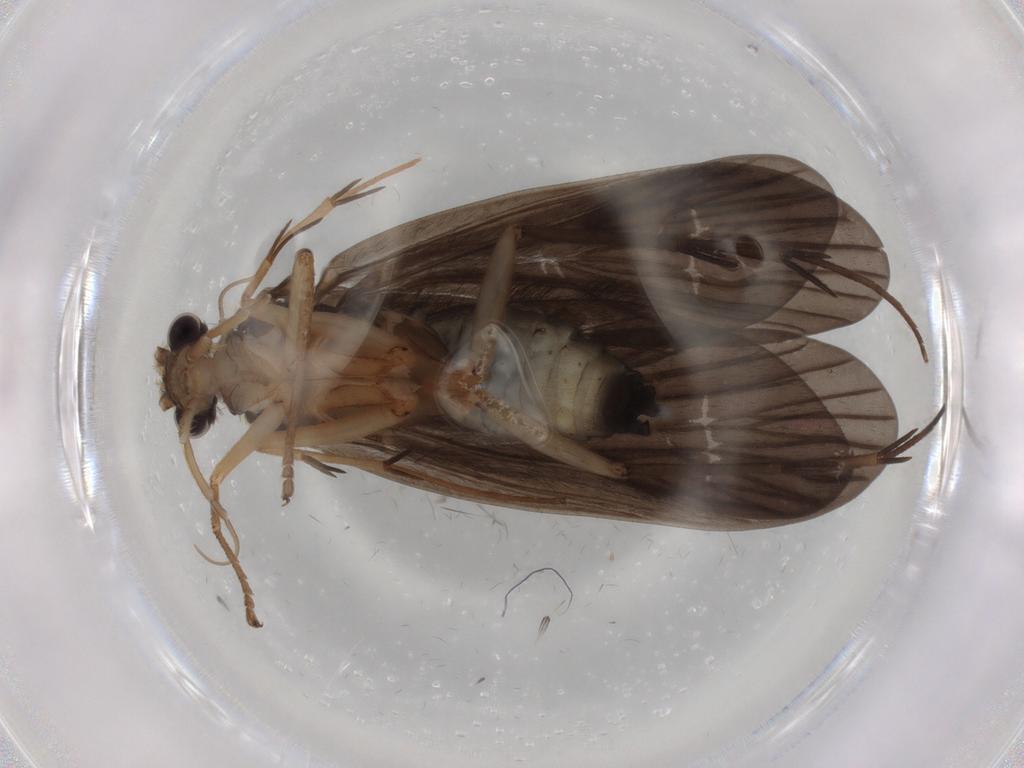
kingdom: Animalia
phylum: Arthropoda
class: Insecta
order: Trichoptera
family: Philopotamidae
